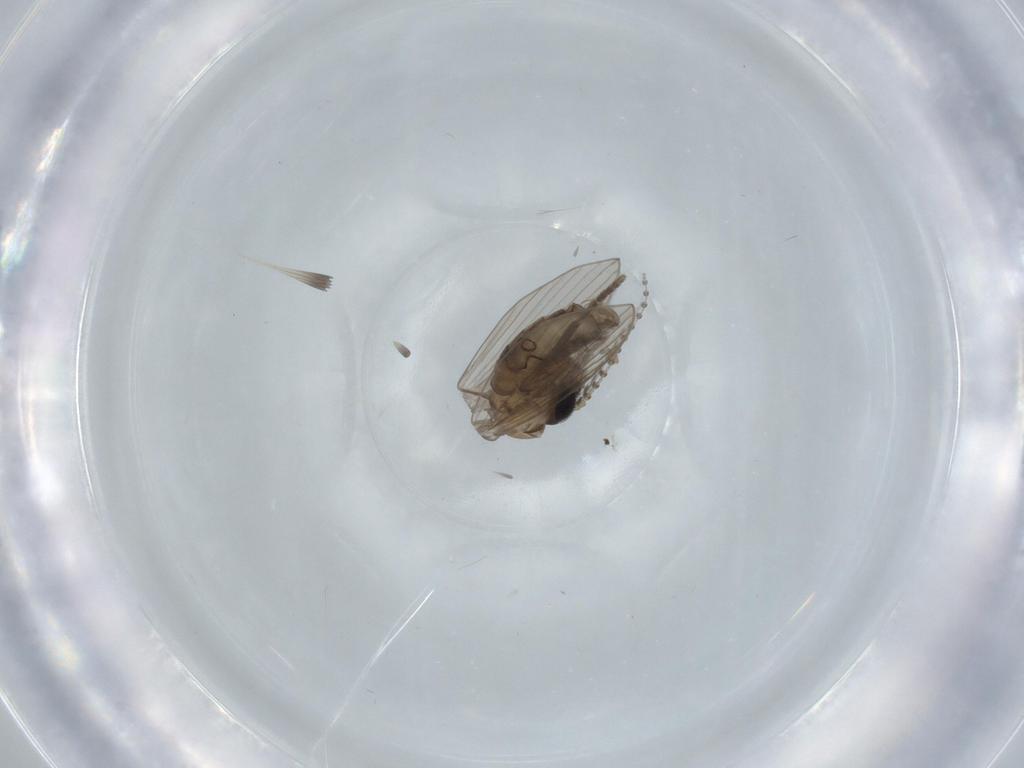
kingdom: Animalia
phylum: Arthropoda
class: Insecta
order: Diptera
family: Psychodidae
